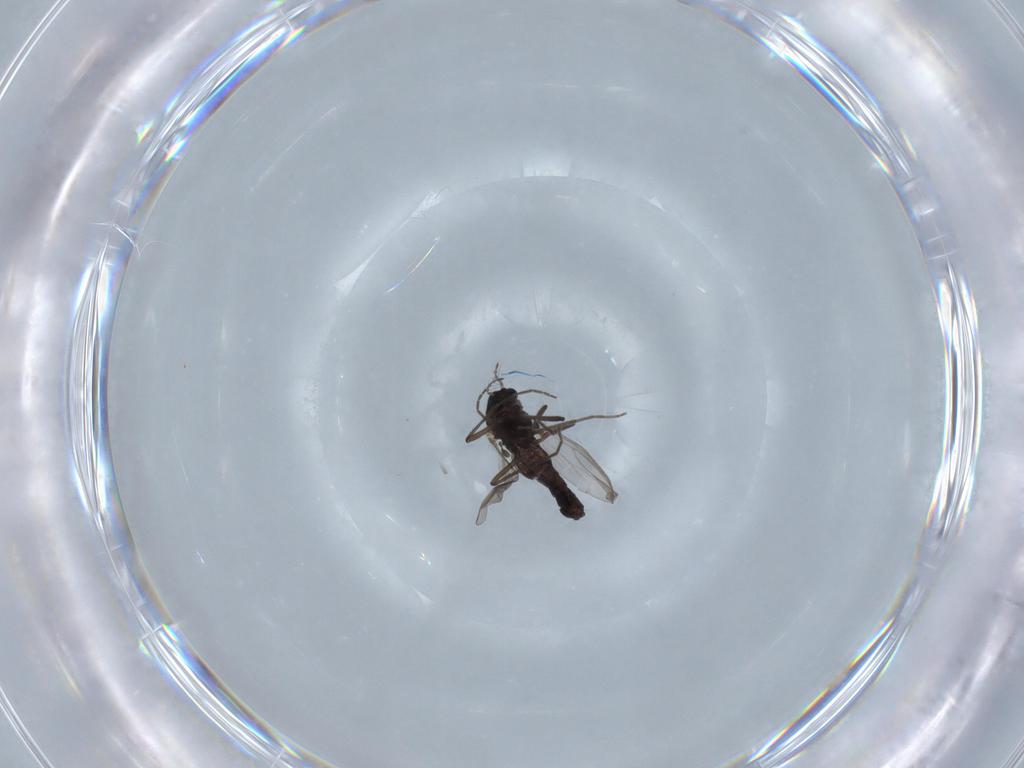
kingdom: Animalia
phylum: Arthropoda
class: Insecta
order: Diptera
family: Chironomidae
